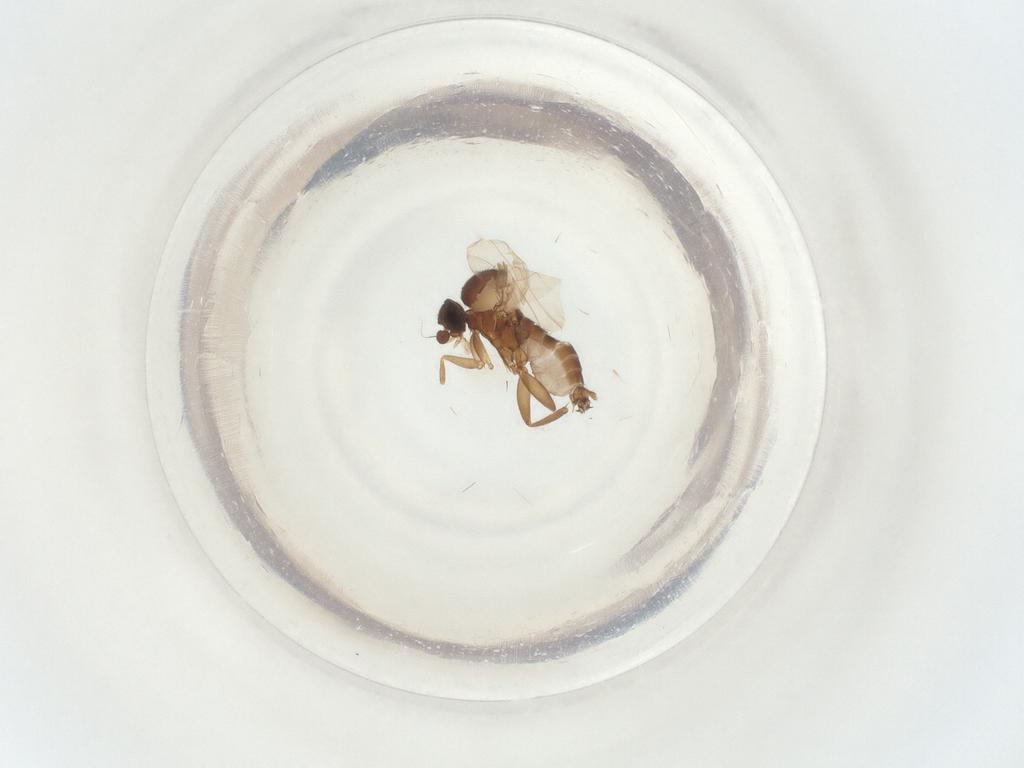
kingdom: Animalia
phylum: Arthropoda
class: Insecta
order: Diptera
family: Phoridae
